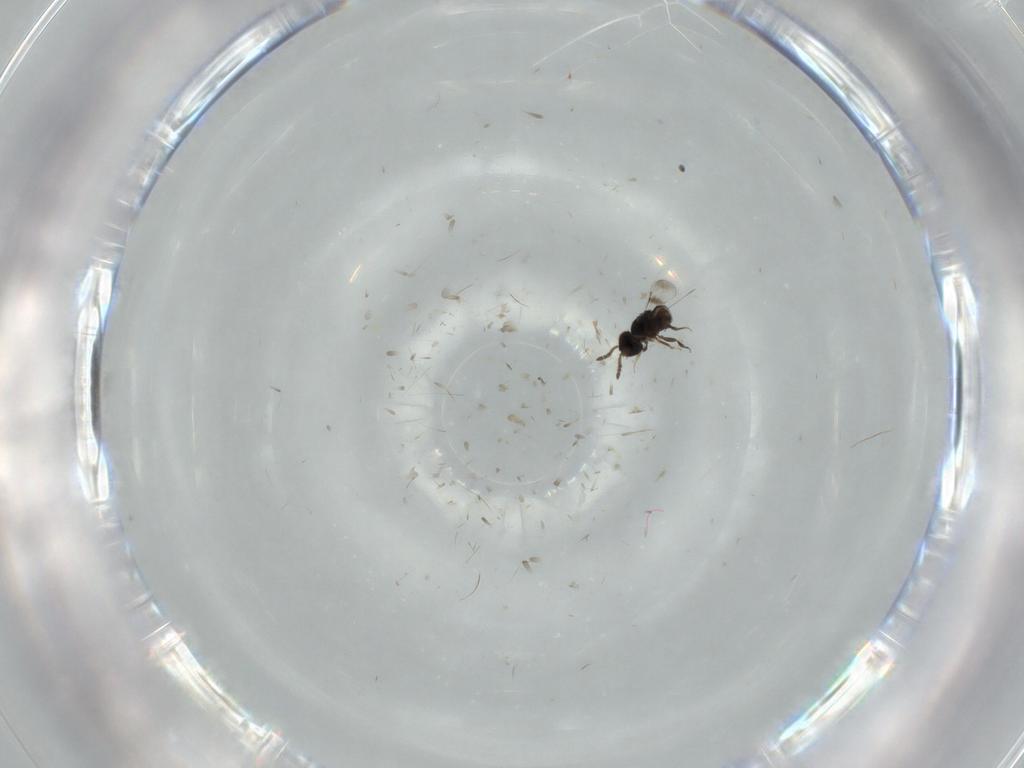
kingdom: Animalia
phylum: Arthropoda
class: Insecta
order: Hymenoptera
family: Ceraphronidae
